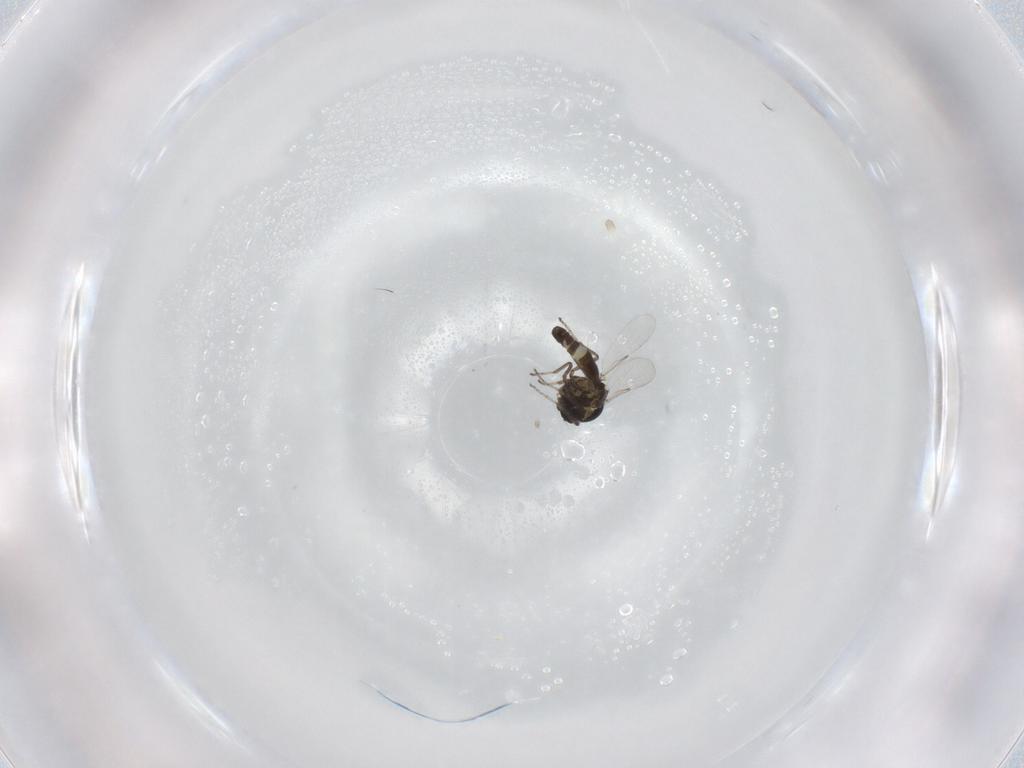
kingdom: Animalia
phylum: Arthropoda
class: Insecta
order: Diptera
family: Ceratopogonidae
